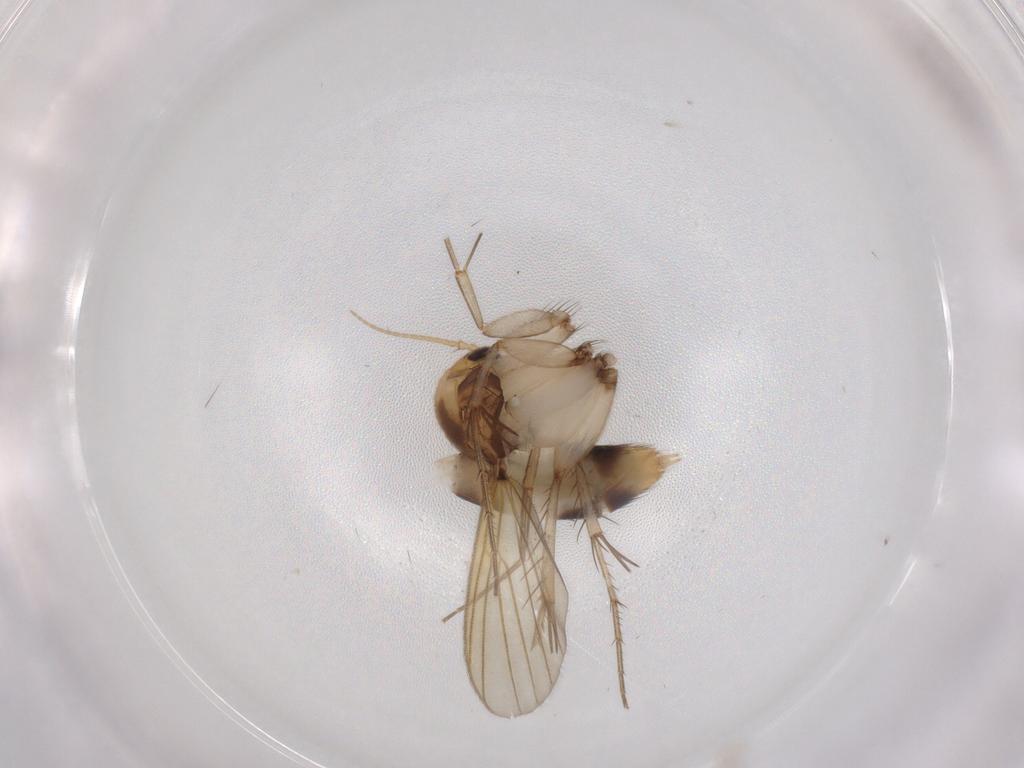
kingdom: Animalia
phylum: Arthropoda
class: Insecta
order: Diptera
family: Mycetophilidae
